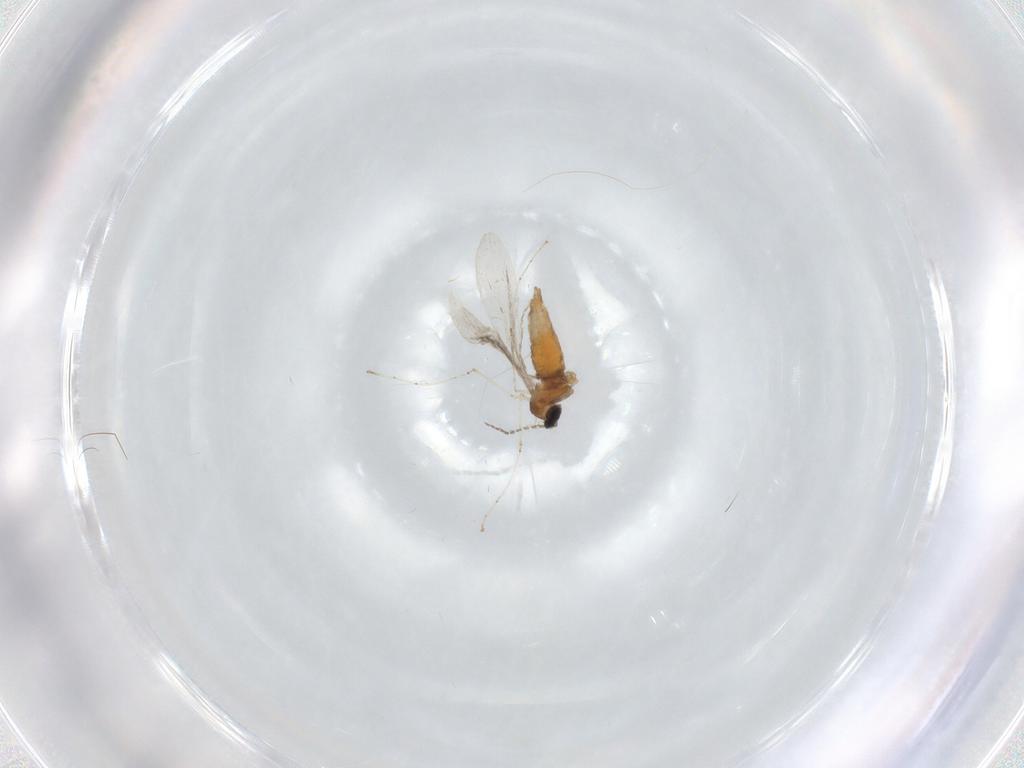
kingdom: Animalia
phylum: Arthropoda
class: Insecta
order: Diptera
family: Cecidomyiidae
